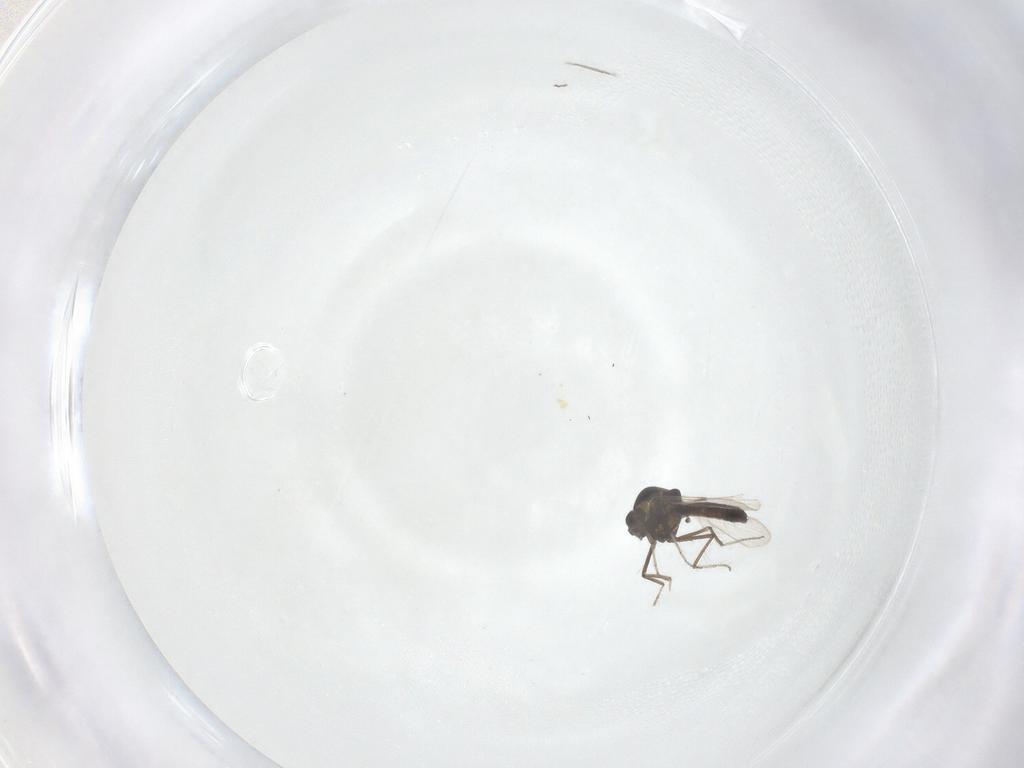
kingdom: Animalia
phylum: Arthropoda
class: Insecta
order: Diptera
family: Ceratopogonidae
